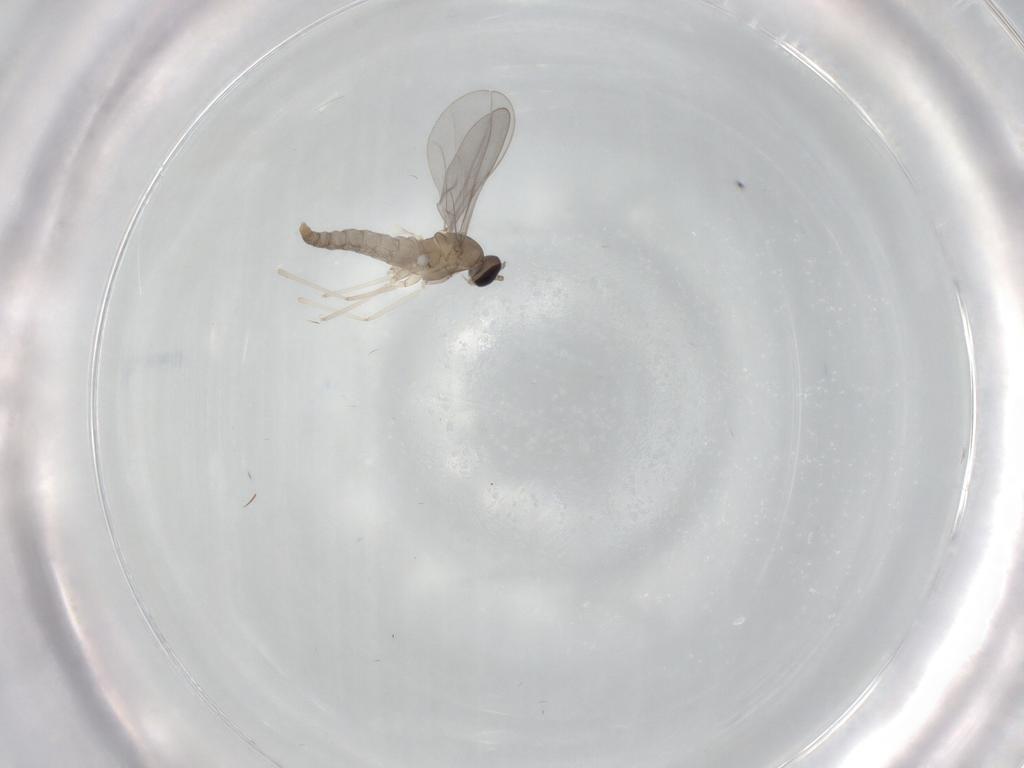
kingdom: Animalia
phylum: Arthropoda
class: Insecta
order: Diptera
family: Cecidomyiidae
